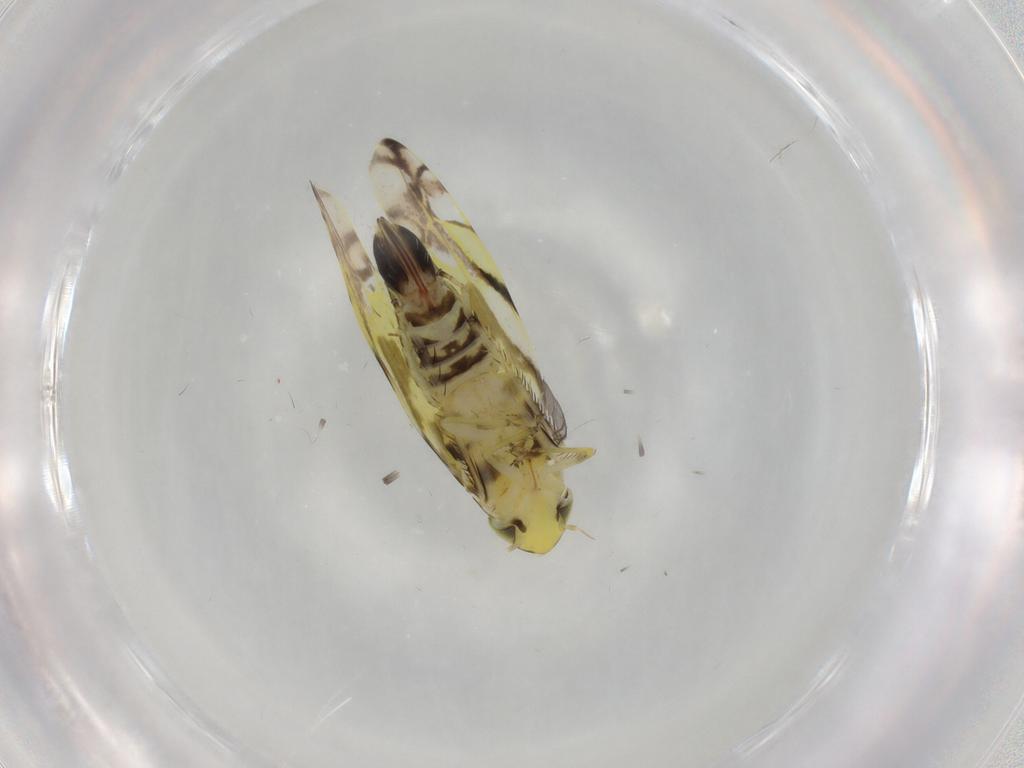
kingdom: Animalia
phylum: Arthropoda
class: Insecta
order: Hemiptera
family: Cicadellidae
